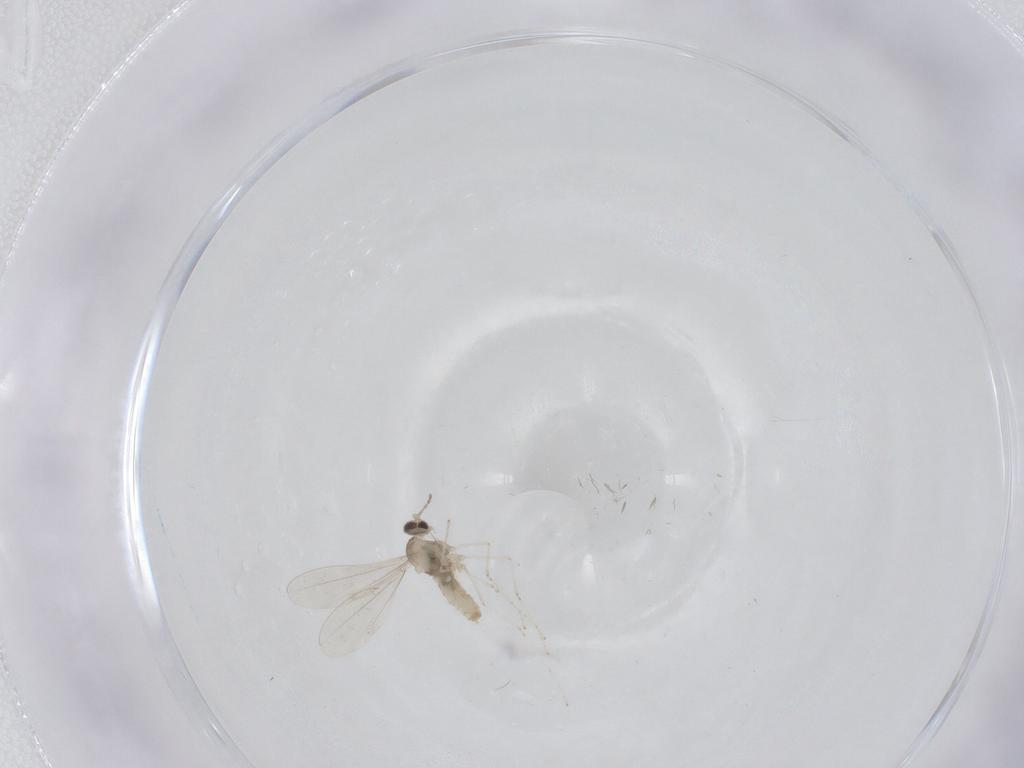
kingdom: Animalia
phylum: Arthropoda
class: Insecta
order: Diptera
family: Cecidomyiidae
